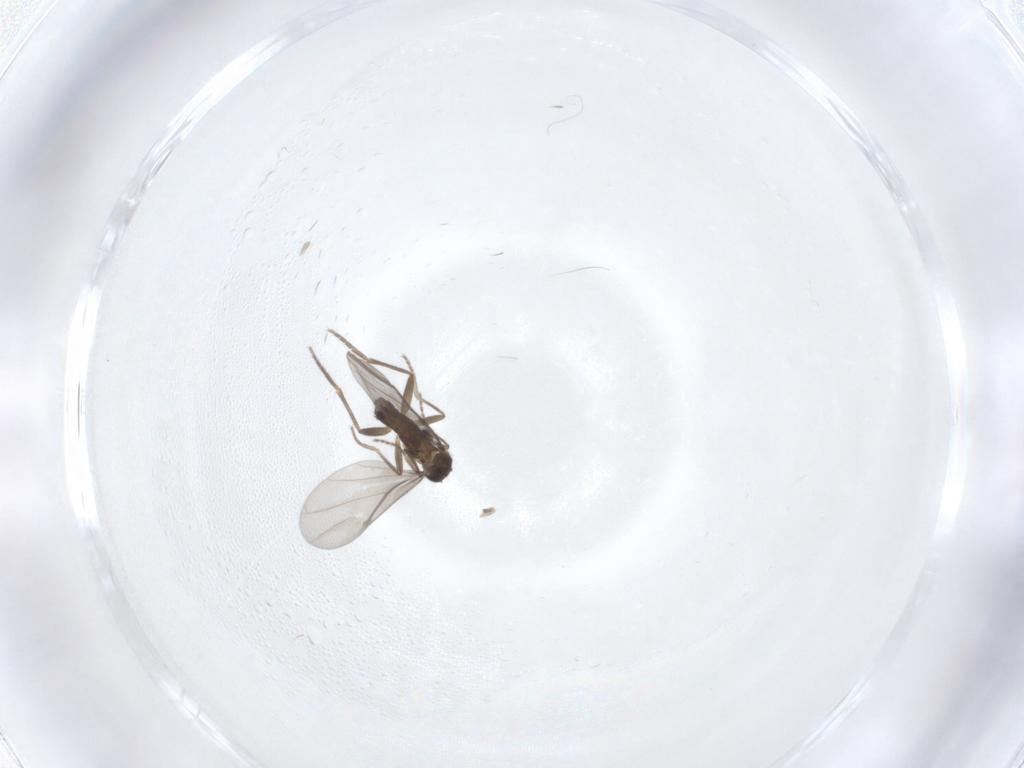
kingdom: Animalia
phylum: Arthropoda
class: Insecta
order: Diptera
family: Phoridae
